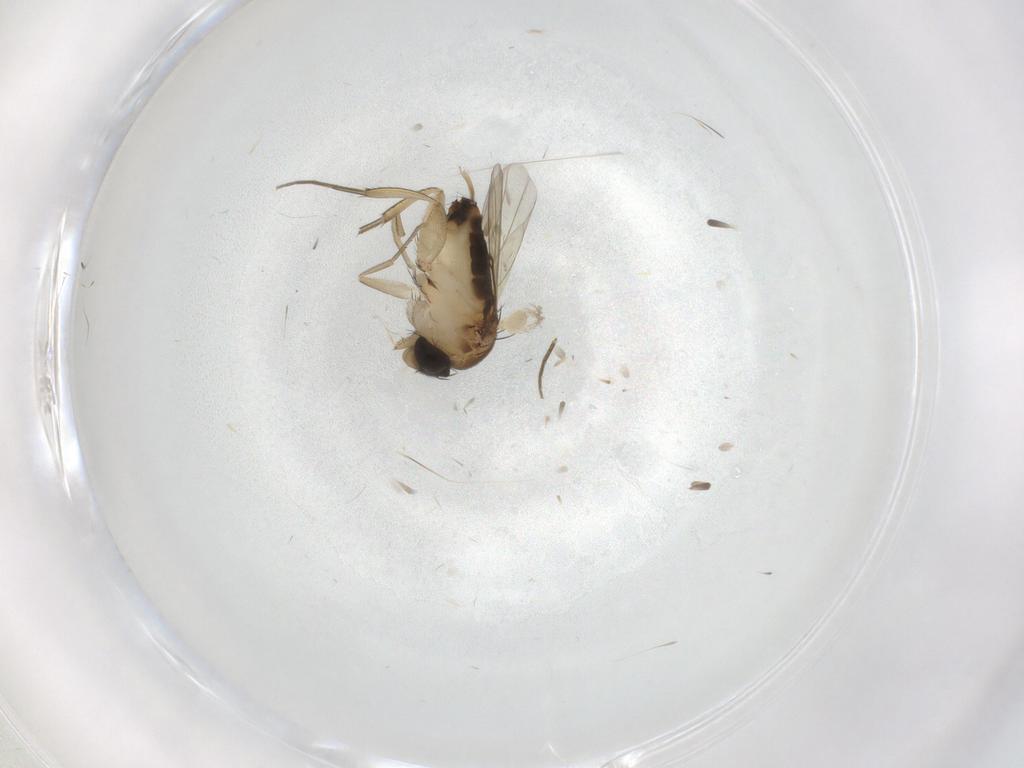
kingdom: Animalia
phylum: Arthropoda
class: Insecta
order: Diptera
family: Phoridae
